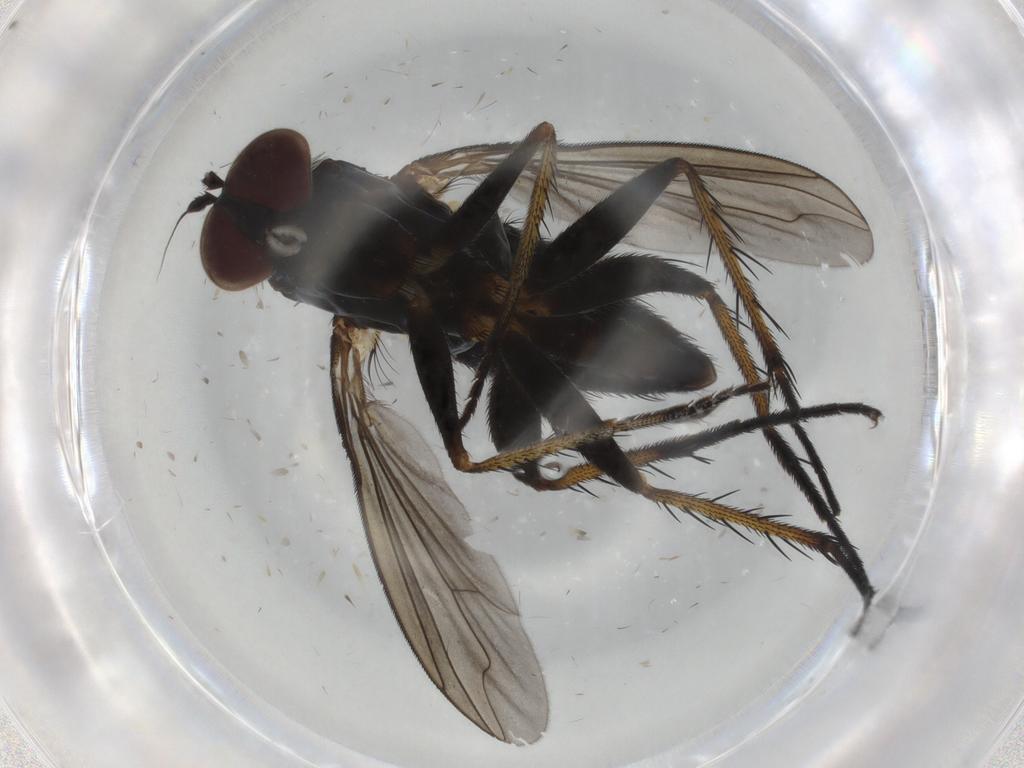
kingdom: Animalia
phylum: Arthropoda
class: Insecta
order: Diptera
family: Dolichopodidae
